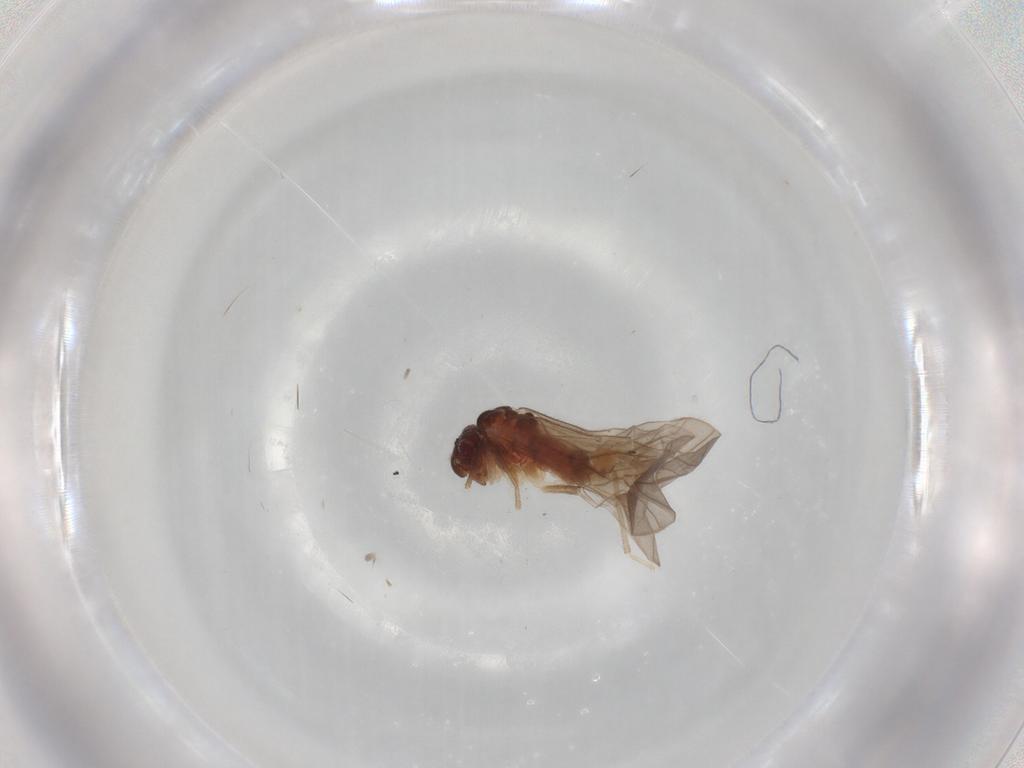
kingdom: Animalia
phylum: Arthropoda
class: Insecta
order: Psocodea
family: Caeciliusidae
